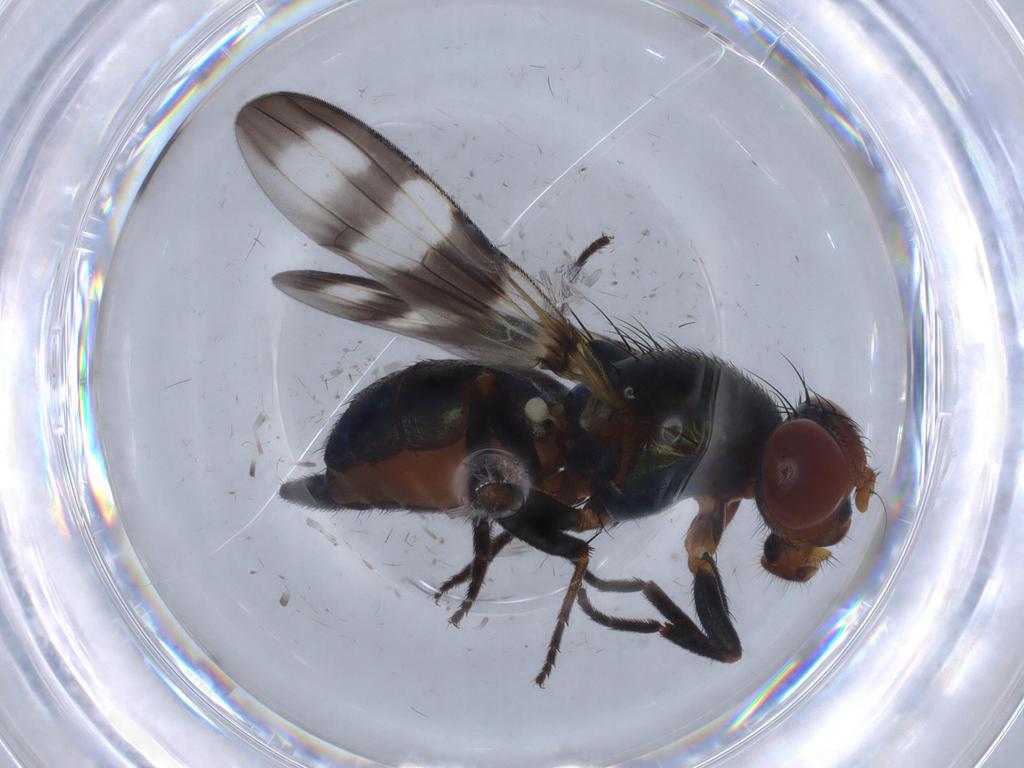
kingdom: Animalia
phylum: Arthropoda
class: Insecta
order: Diptera
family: Chironomidae
